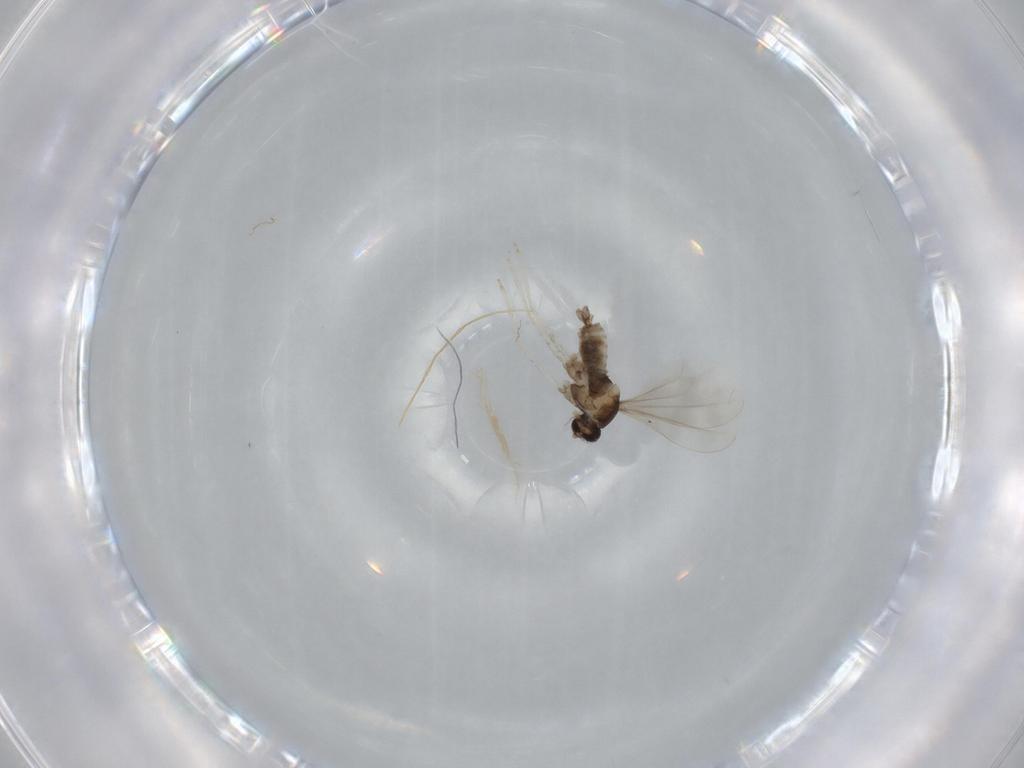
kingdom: Animalia
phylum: Arthropoda
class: Insecta
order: Diptera
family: Cecidomyiidae
